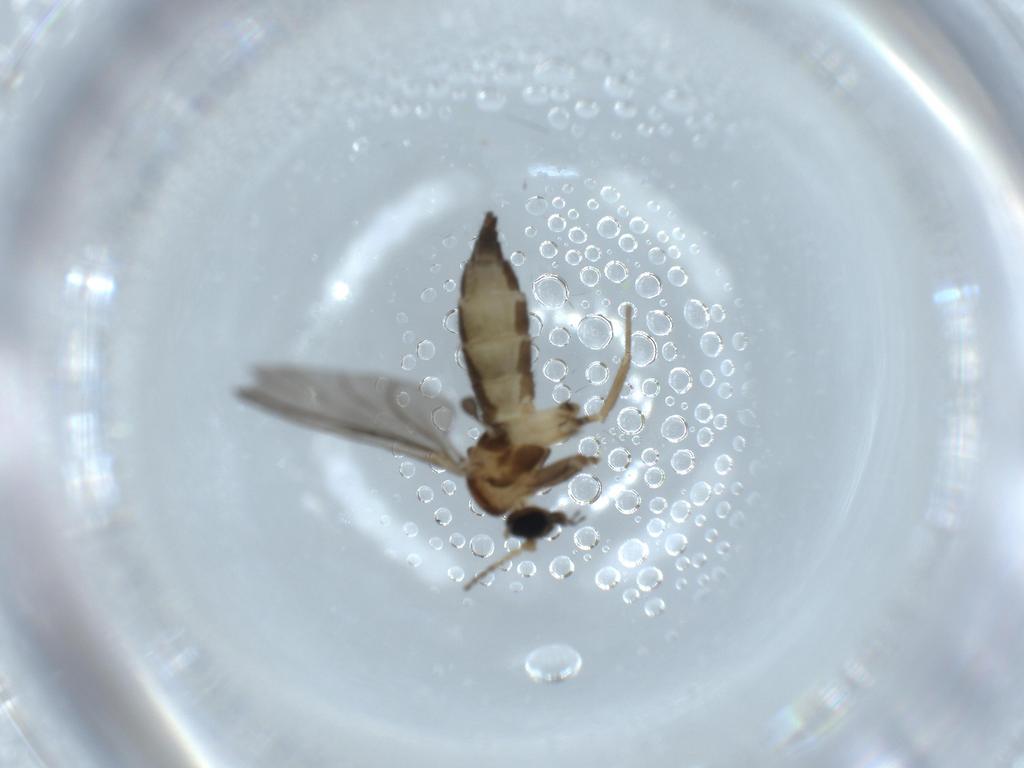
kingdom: Animalia
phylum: Arthropoda
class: Insecta
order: Diptera
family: Sciaridae
